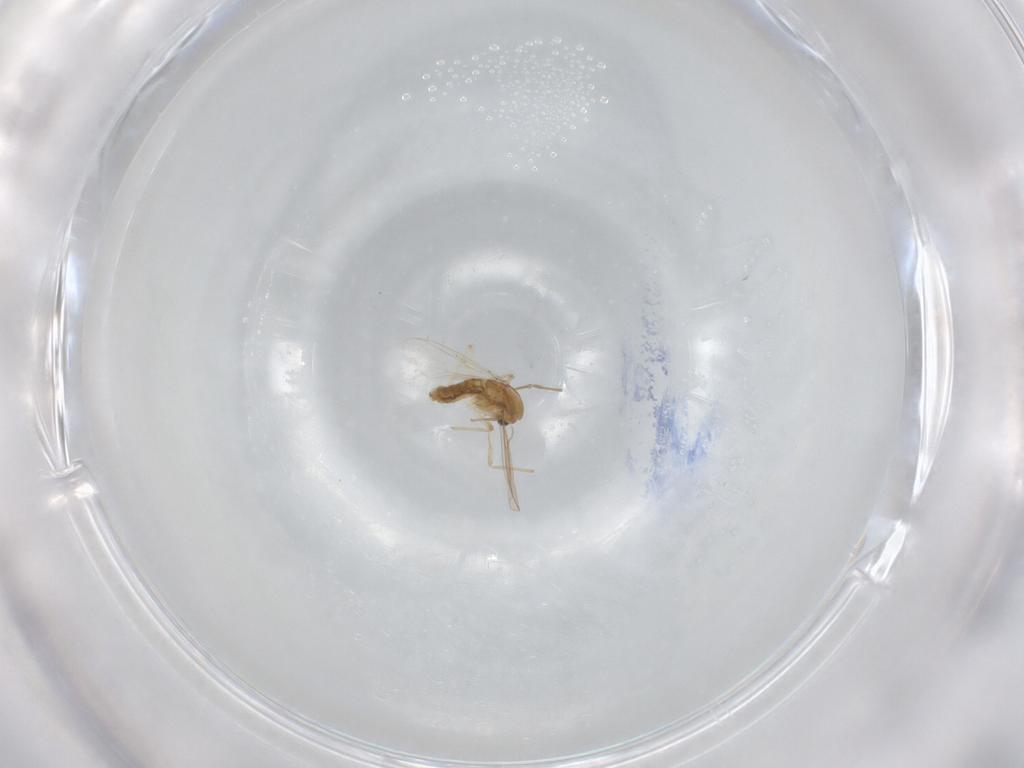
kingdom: Animalia
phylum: Arthropoda
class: Insecta
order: Diptera
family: Chironomidae
